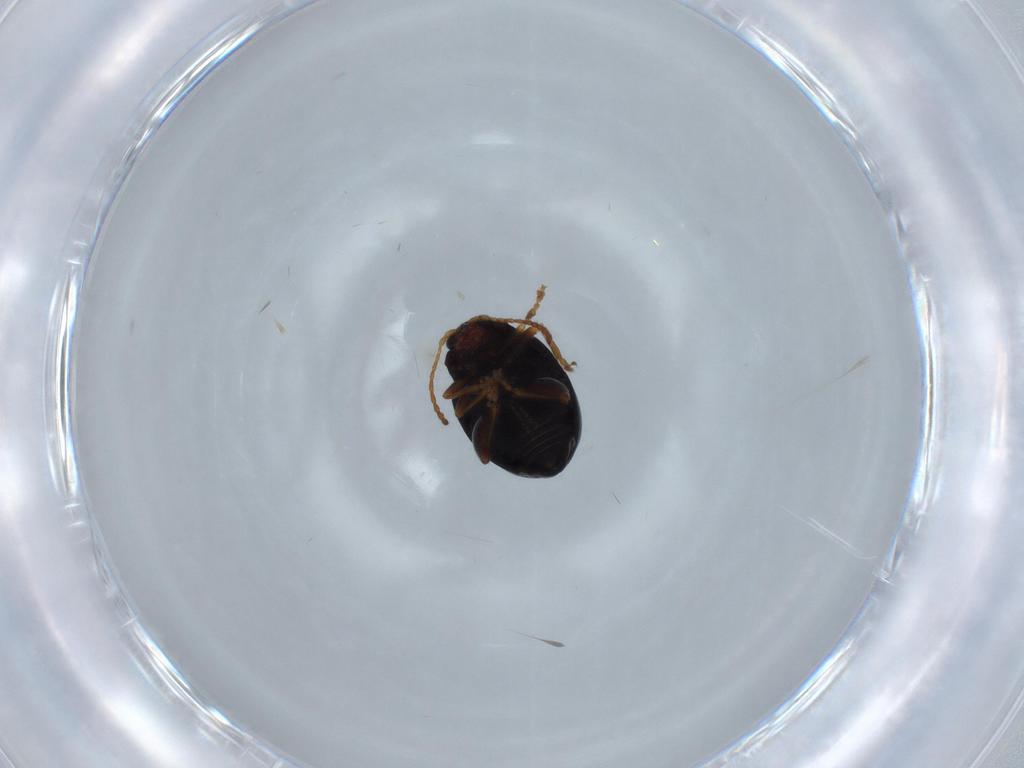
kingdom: Animalia
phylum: Arthropoda
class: Insecta
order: Coleoptera
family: Chrysomelidae
